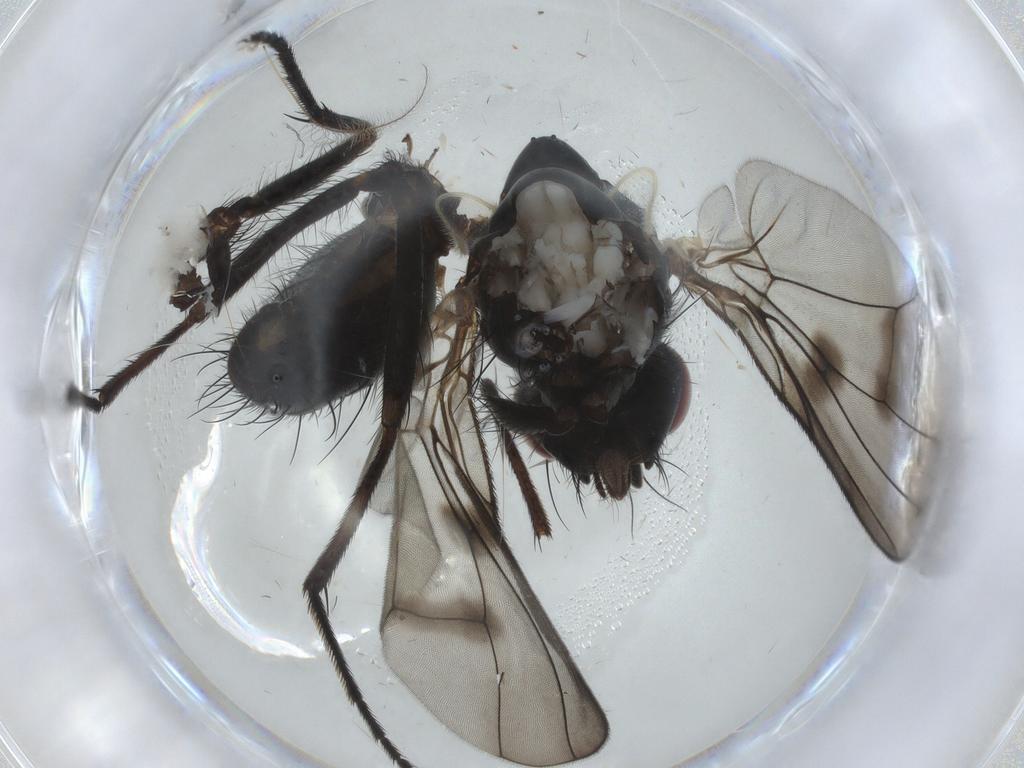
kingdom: Animalia
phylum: Arthropoda
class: Insecta
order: Diptera
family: Muscidae
